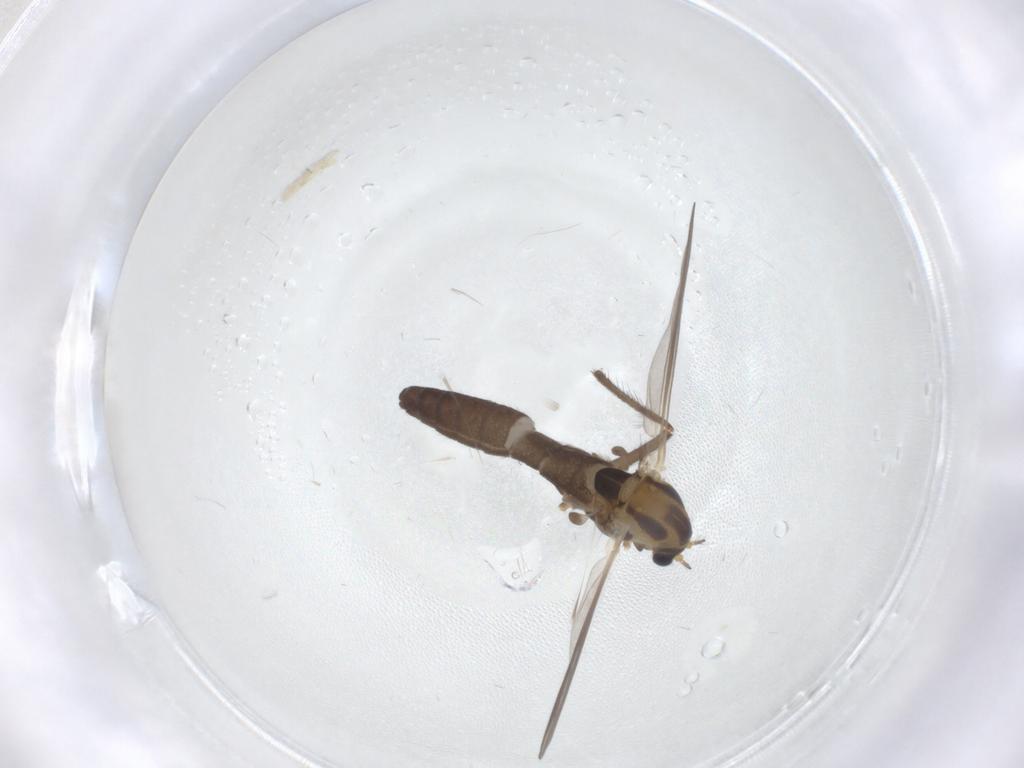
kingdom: Animalia
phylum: Arthropoda
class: Insecta
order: Diptera
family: Chironomidae
